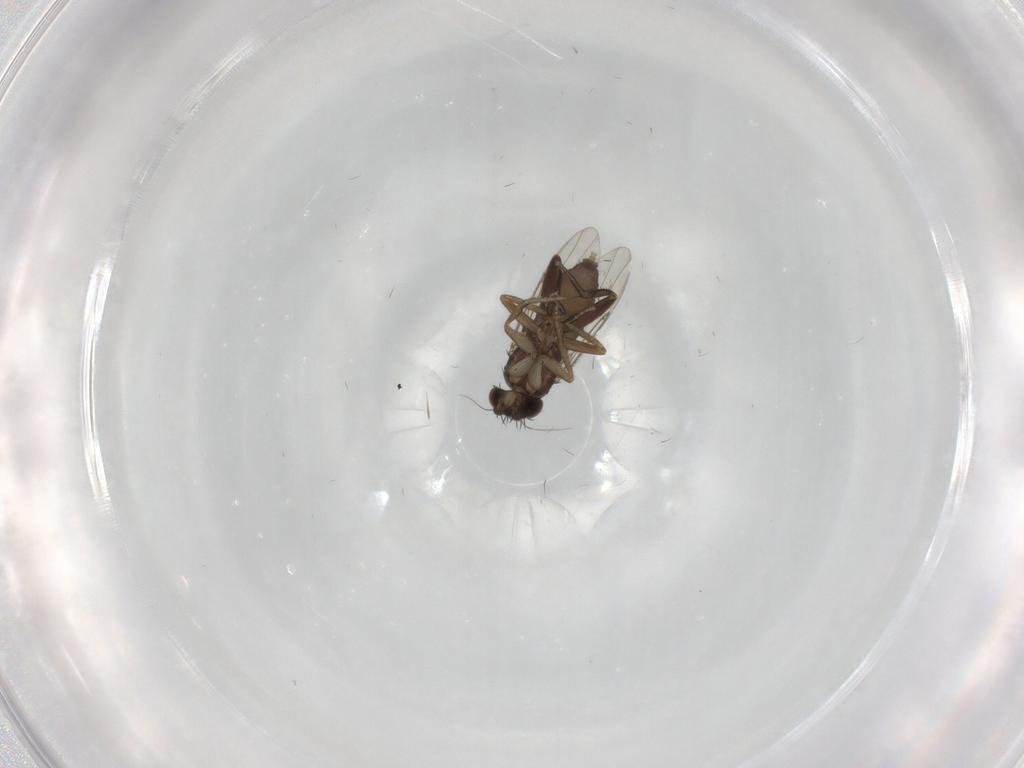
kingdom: Animalia
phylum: Arthropoda
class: Insecta
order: Diptera
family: Phoridae
